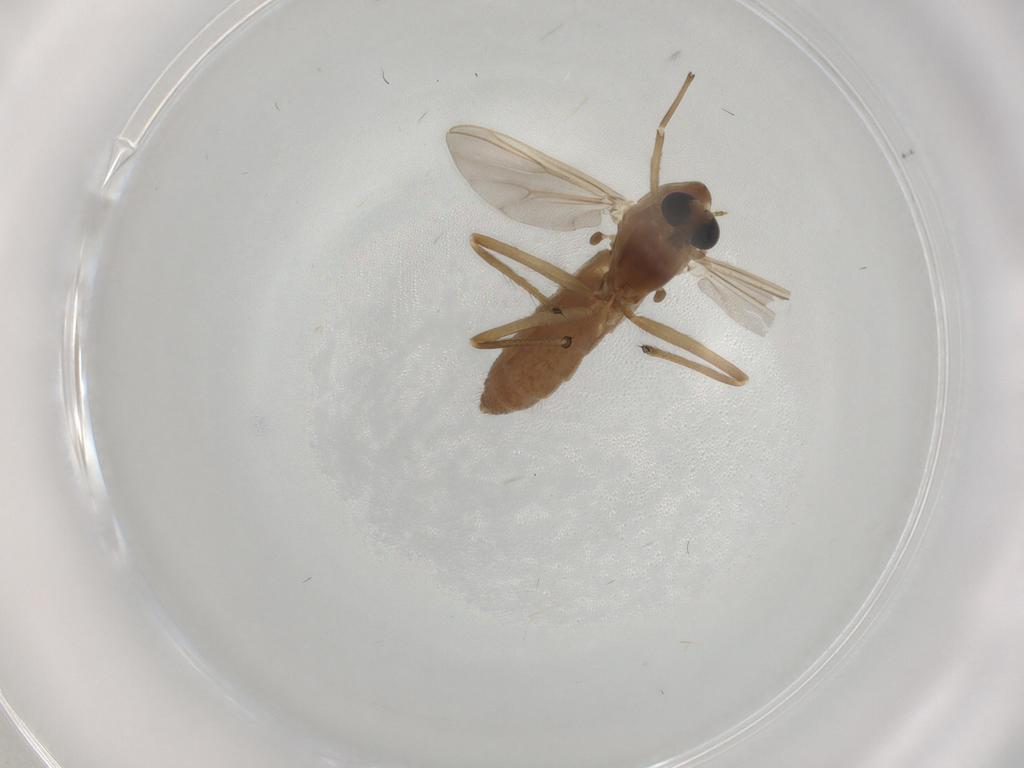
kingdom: Animalia
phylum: Arthropoda
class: Insecta
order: Diptera
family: Chironomidae
